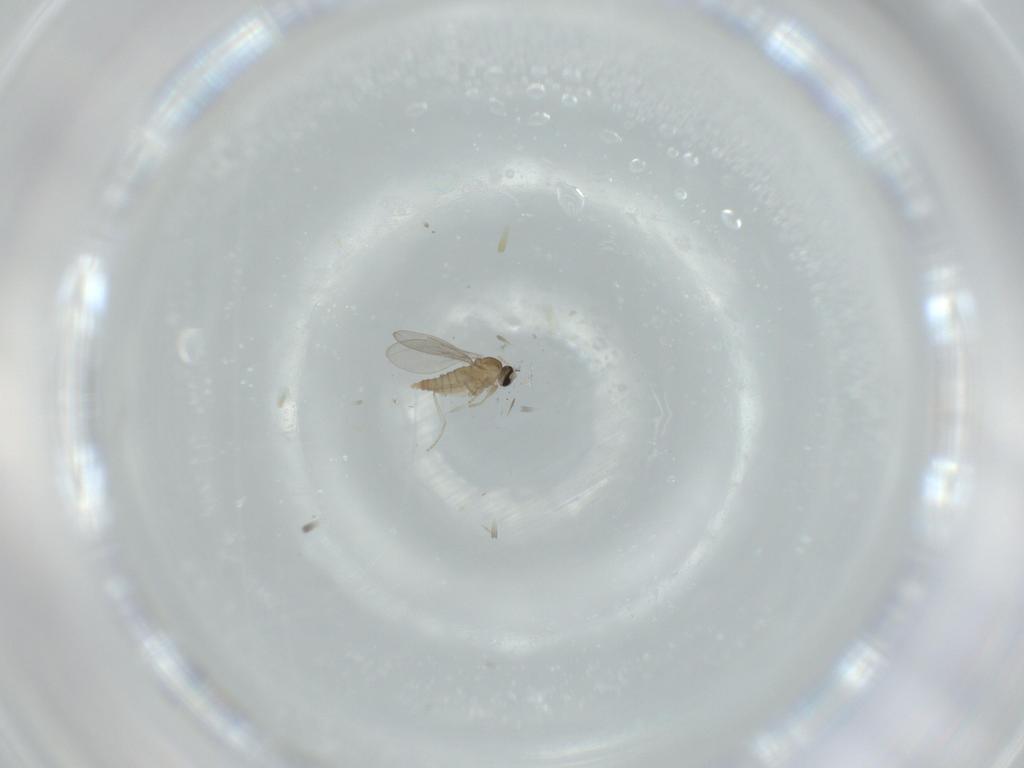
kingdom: Animalia
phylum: Arthropoda
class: Insecta
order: Diptera
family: Cecidomyiidae
